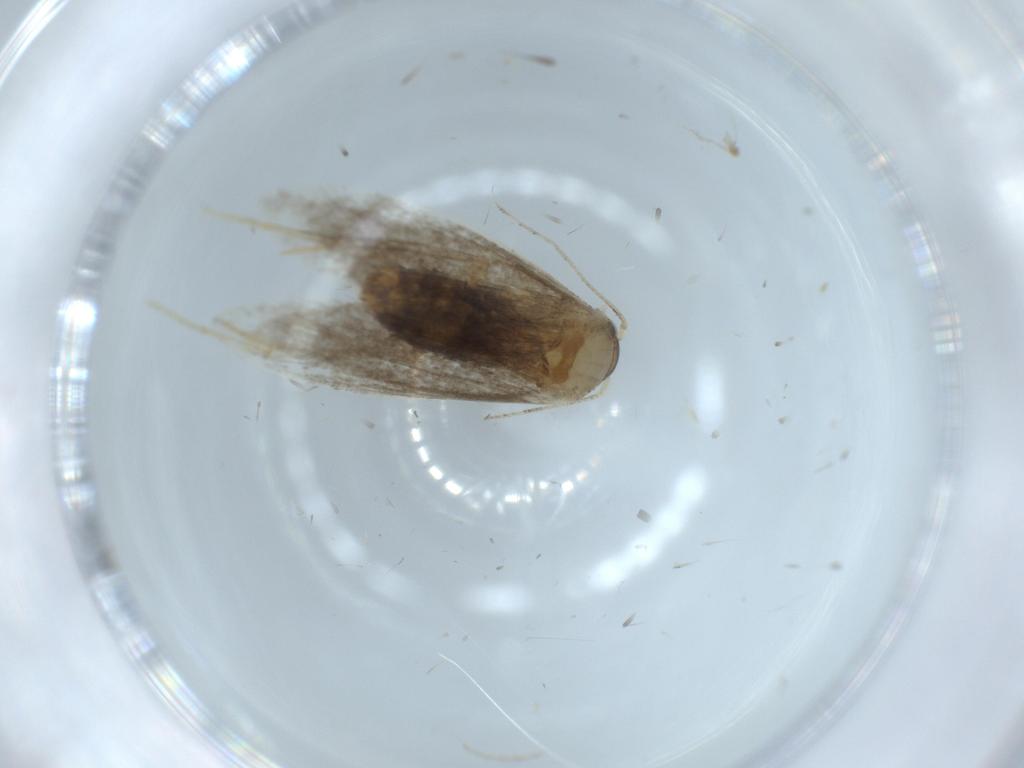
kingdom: Animalia
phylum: Arthropoda
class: Insecta
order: Lepidoptera
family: Tineidae
